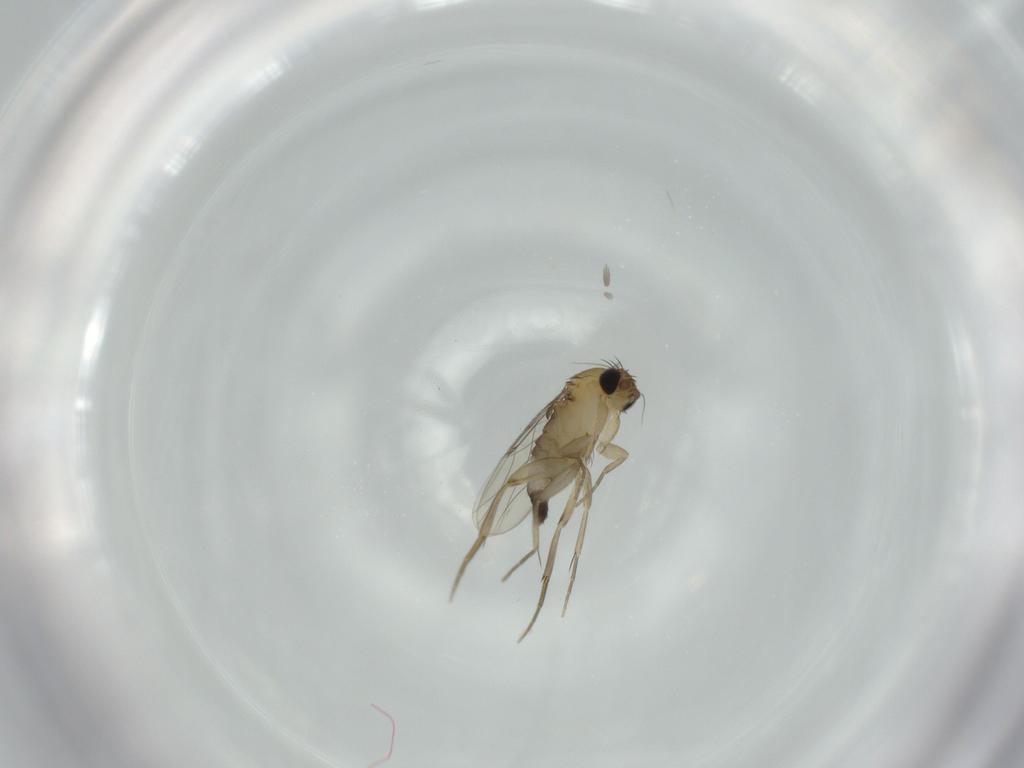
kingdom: Animalia
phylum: Arthropoda
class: Insecta
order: Diptera
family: Phoridae
